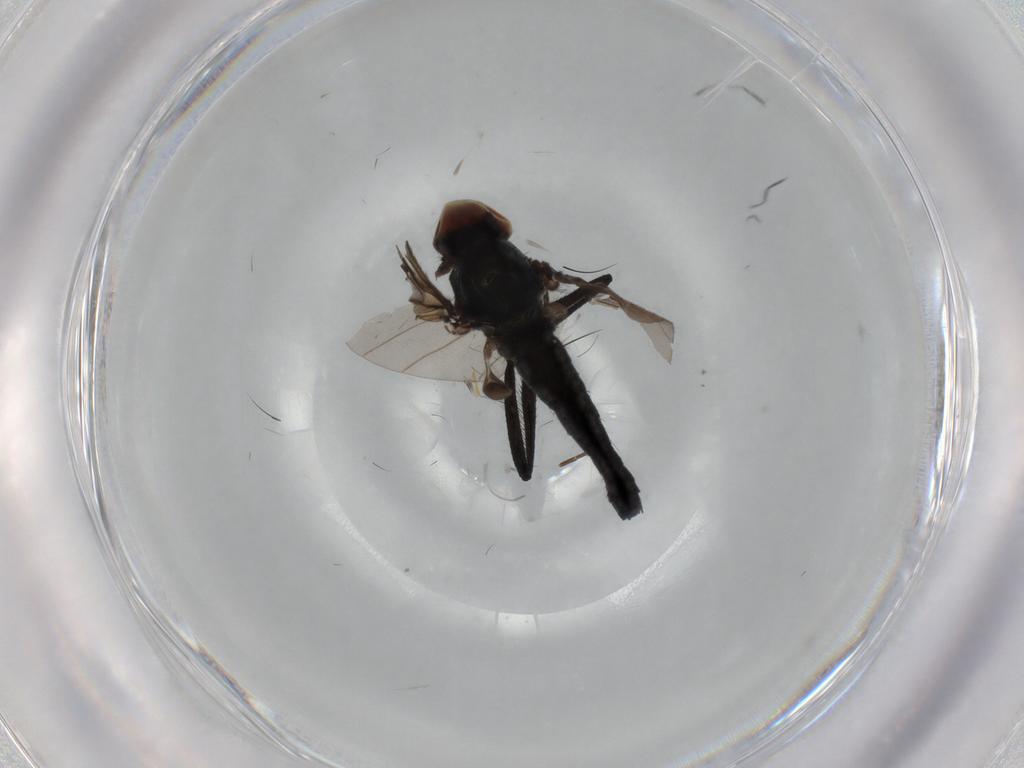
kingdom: Animalia
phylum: Arthropoda
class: Insecta
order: Diptera
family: Hybotidae
